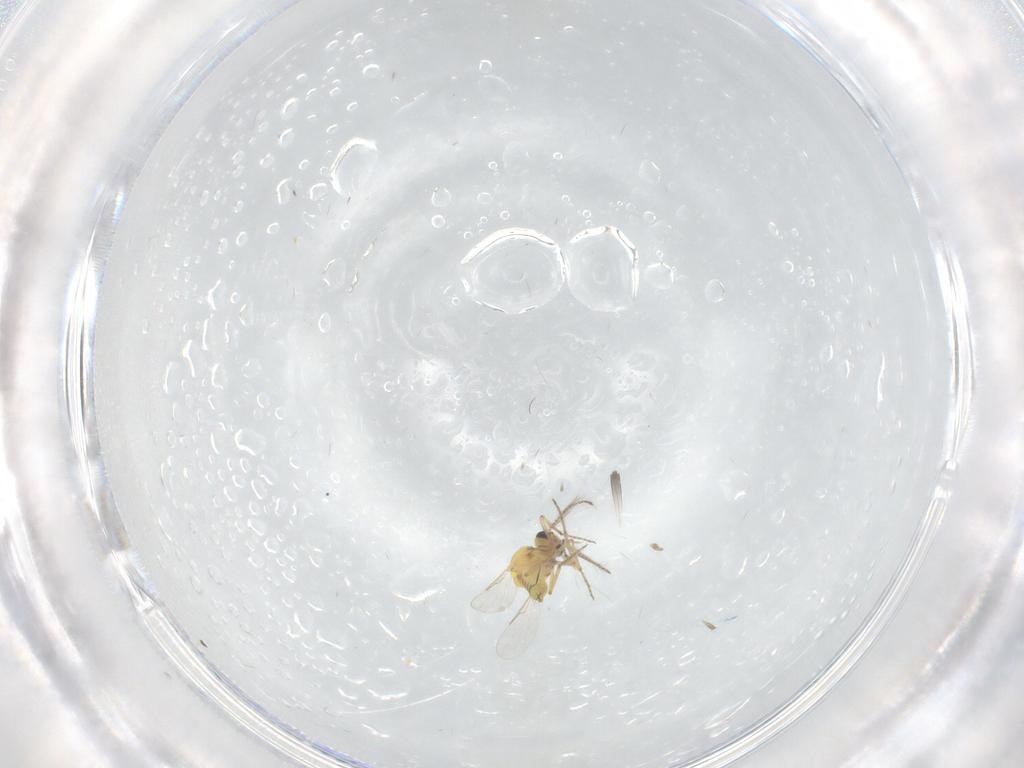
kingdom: Animalia
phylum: Arthropoda
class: Insecta
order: Diptera
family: Ceratopogonidae
